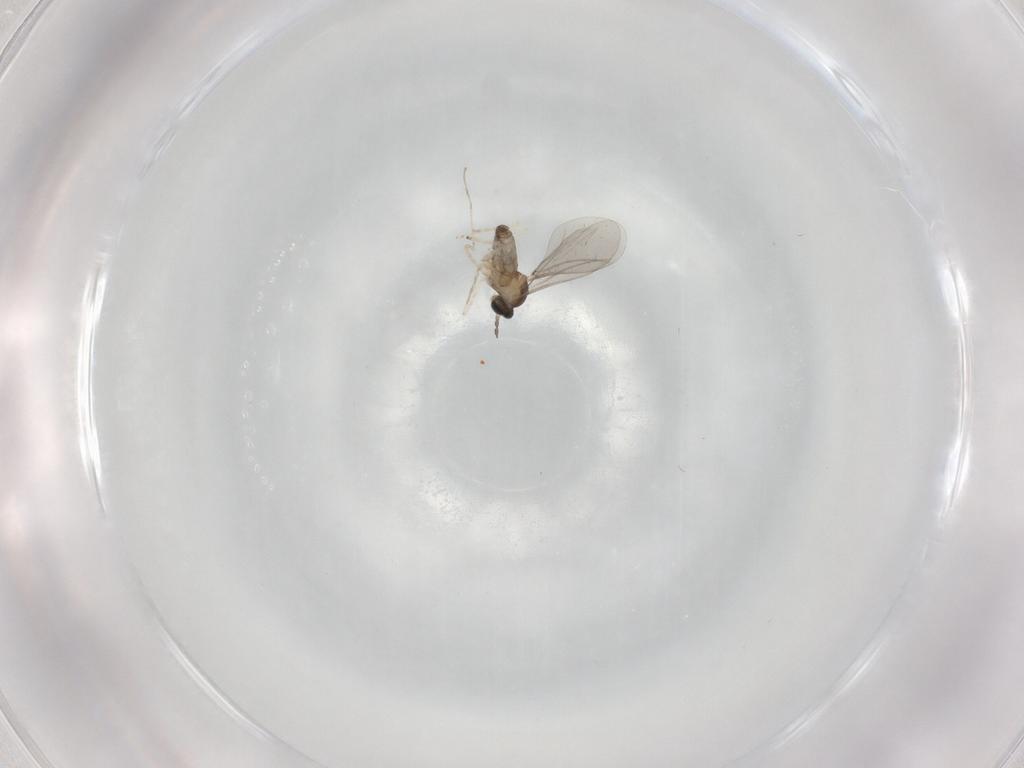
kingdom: Animalia
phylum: Arthropoda
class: Insecta
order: Diptera
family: Cecidomyiidae
